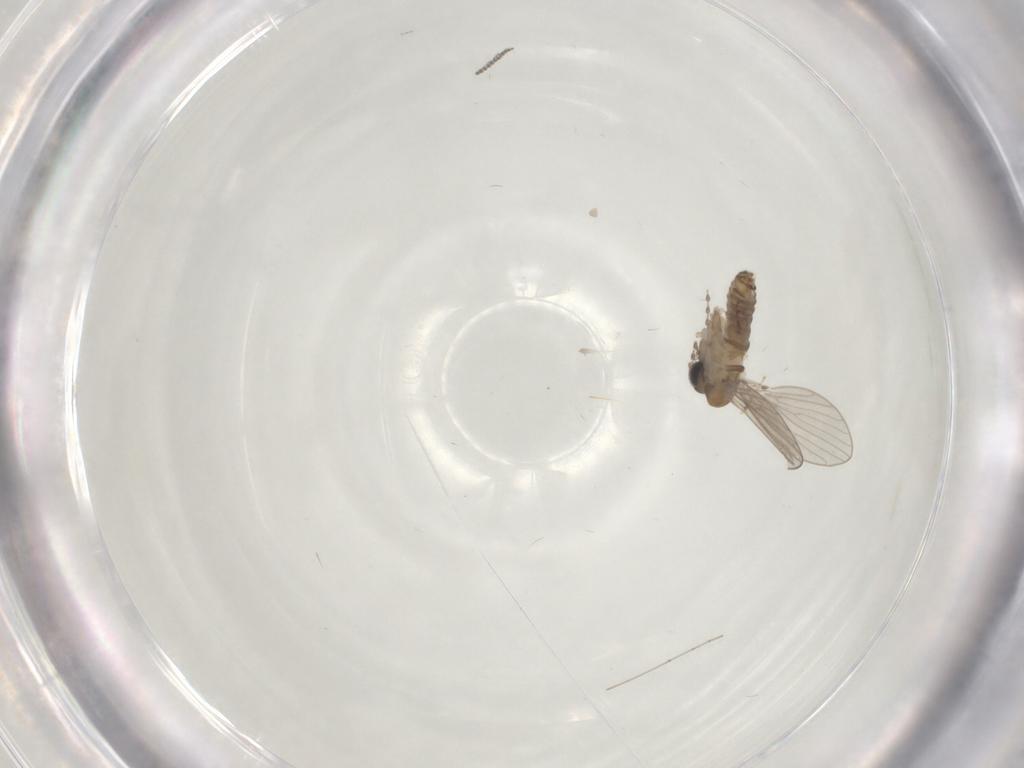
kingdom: Animalia
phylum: Arthropoda
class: Insecta
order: Diptera
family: Psychodidae
